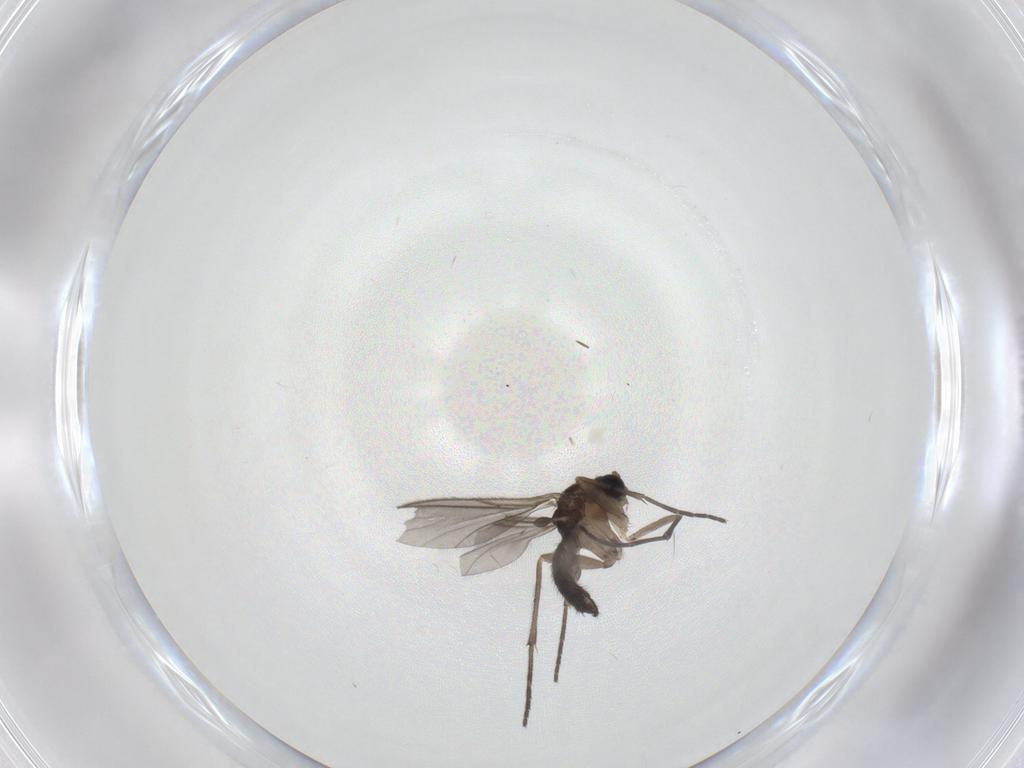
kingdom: Animalia
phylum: Arthropoda
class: Insecta
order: Diptera
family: Sciaridae
